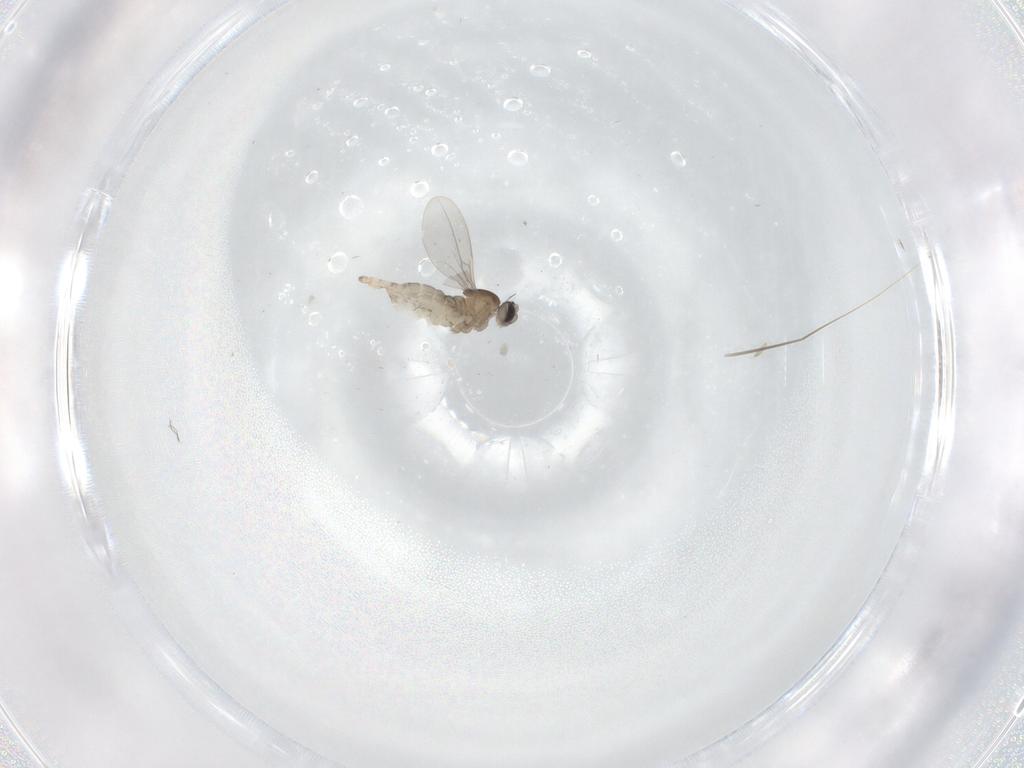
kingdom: Animalia
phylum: Arthropoda
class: Insecta
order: Diptera
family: Cecidomyiidae
